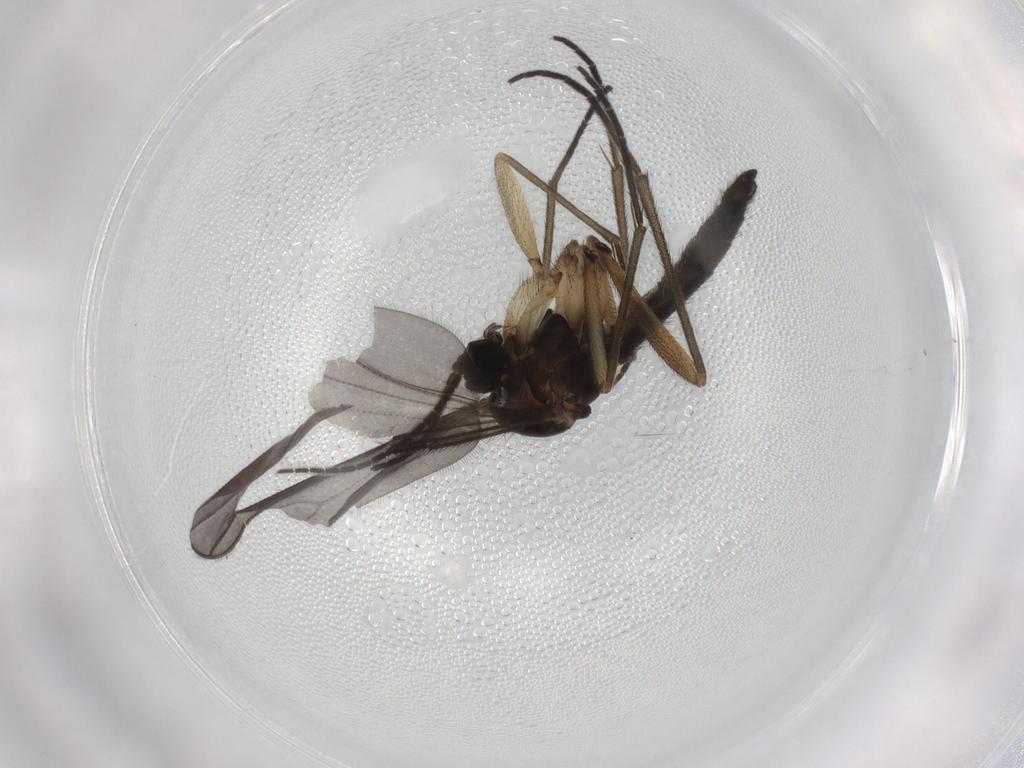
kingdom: Animalia
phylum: Arthropoda
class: Insecta
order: Diptera
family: Sciaridae
